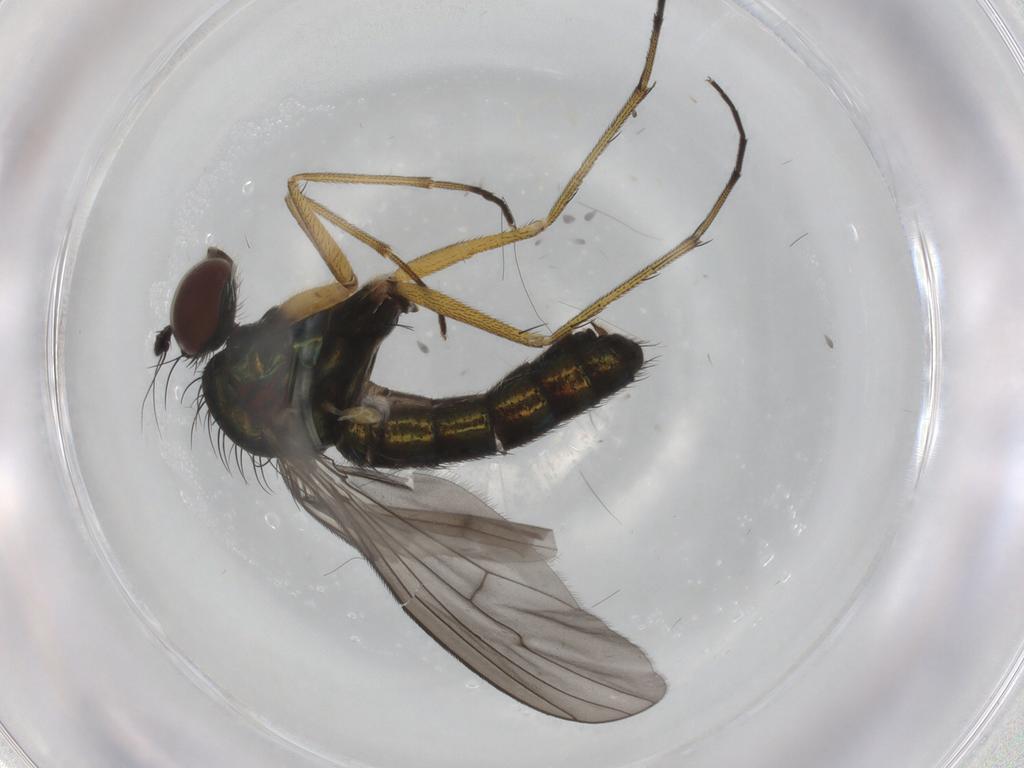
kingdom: Animalia
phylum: Arthropoda
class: Insecta
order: Diptera
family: Dolichopodidae
